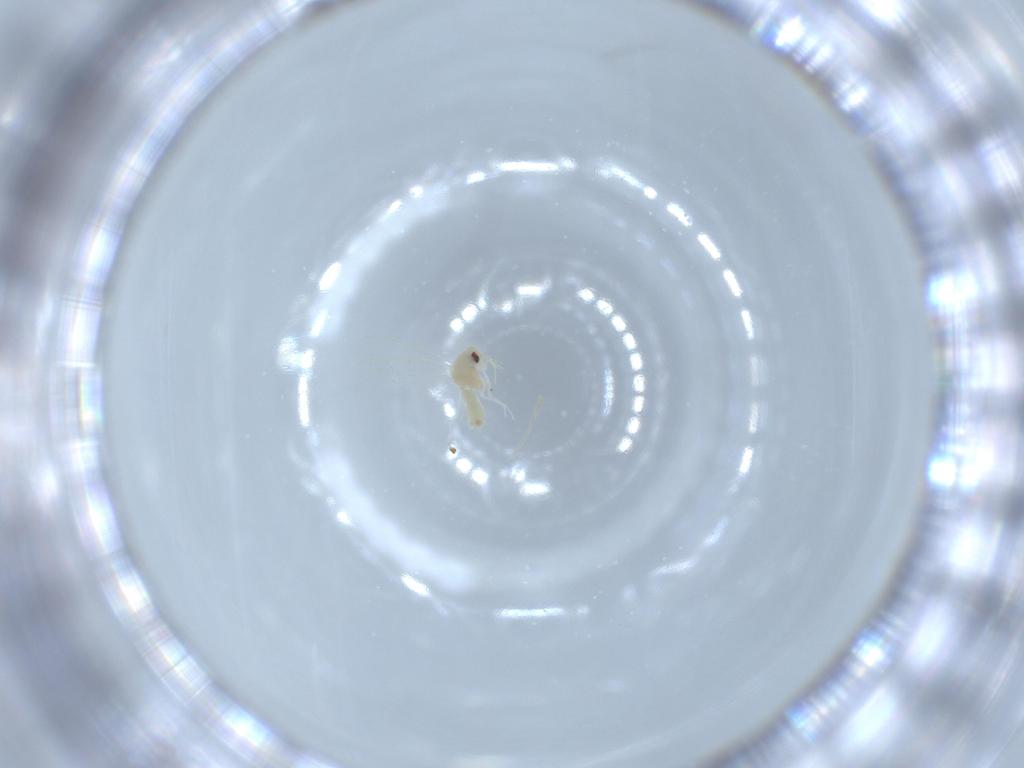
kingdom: Animalia
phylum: Arthropoda
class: Insecta
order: Hemiptera
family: Aleyrodidae
